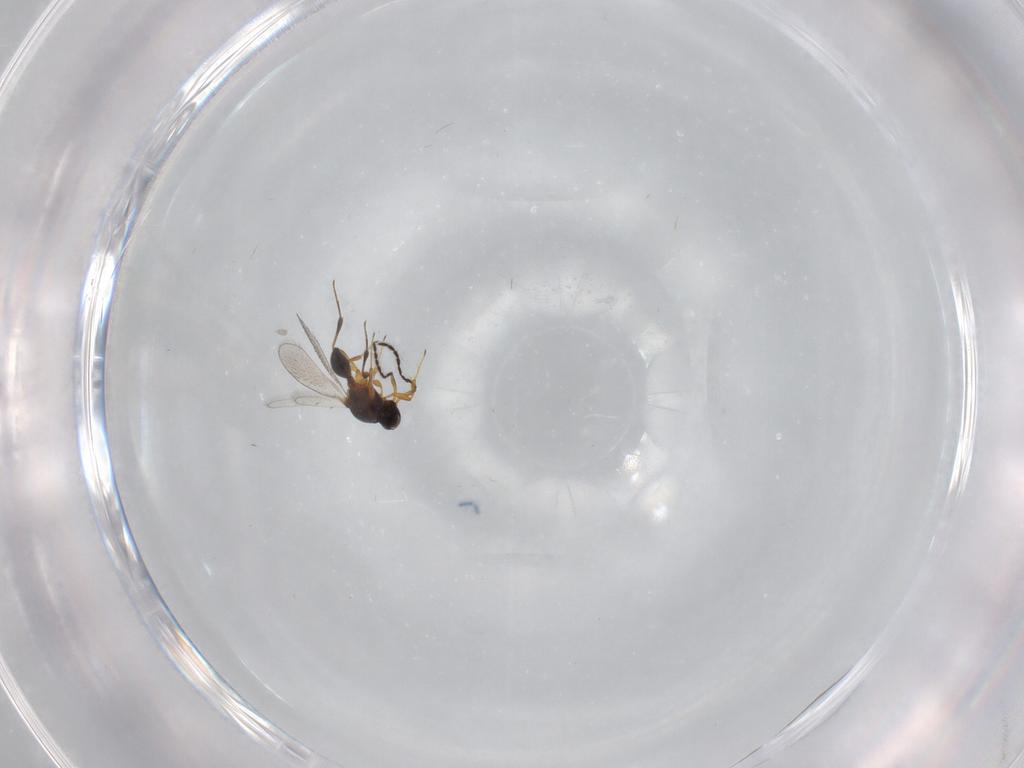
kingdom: Animalia
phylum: Arthropoda
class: Insecta
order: Hymenoptera
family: Platygastridae
